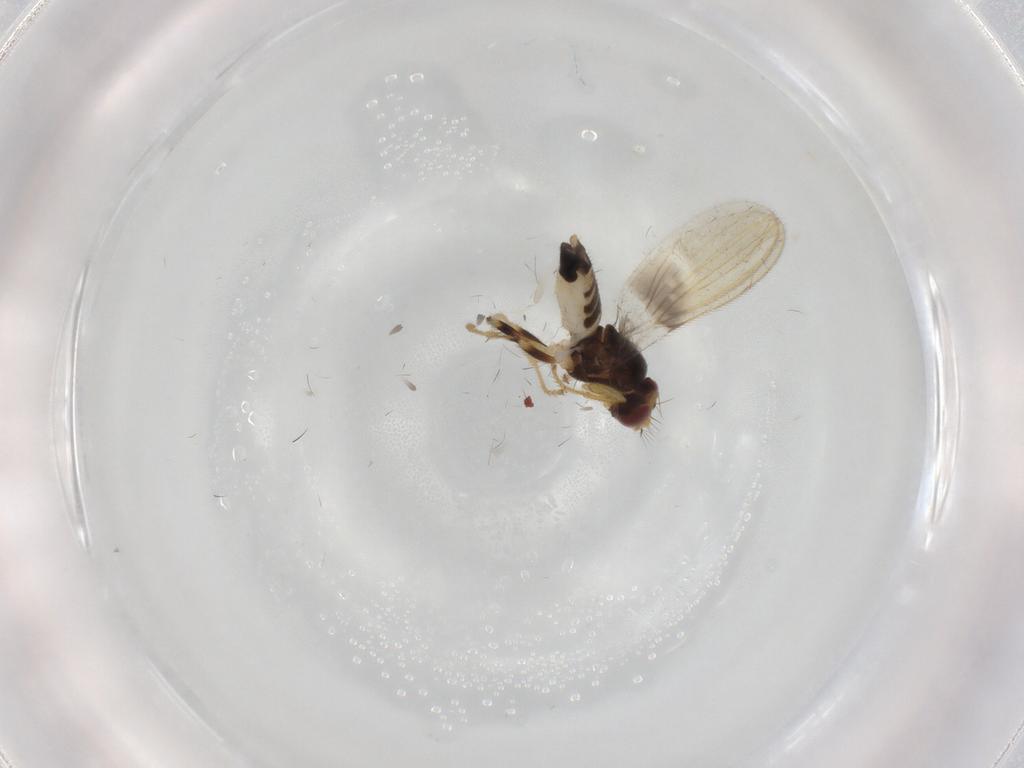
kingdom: Animalia
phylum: Arthropoda
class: Insecta
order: Diptera
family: Periscelididae
